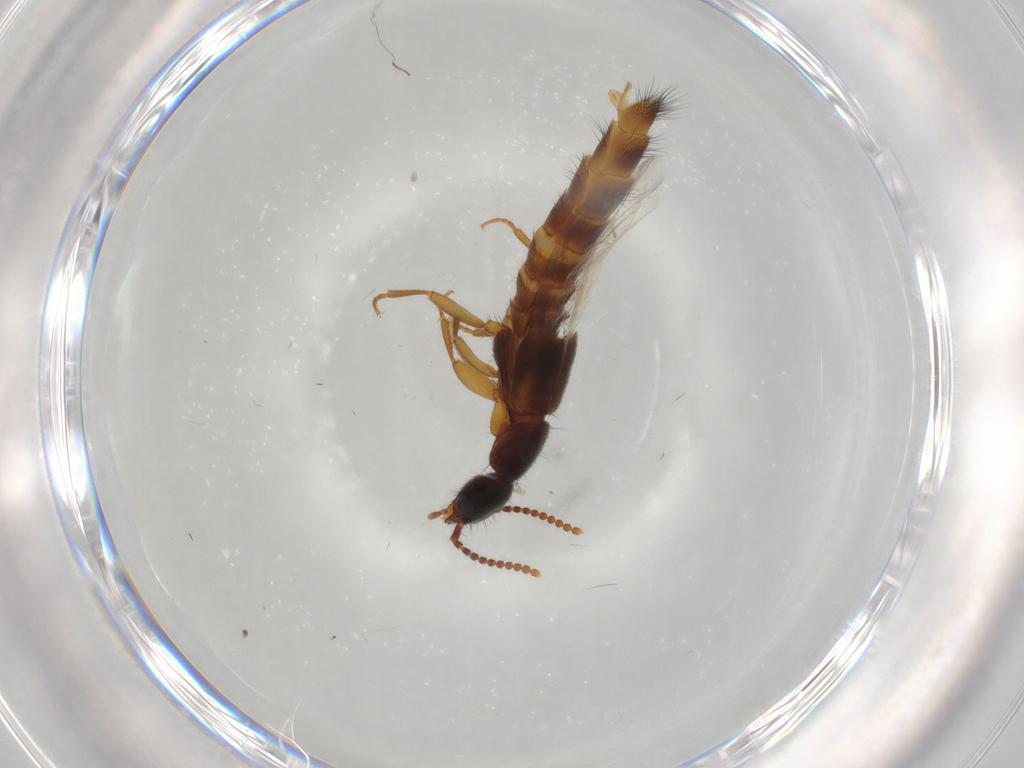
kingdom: Animalia
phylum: Arthropoda
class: Insecta
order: Coleoptera
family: Staphylinidae
